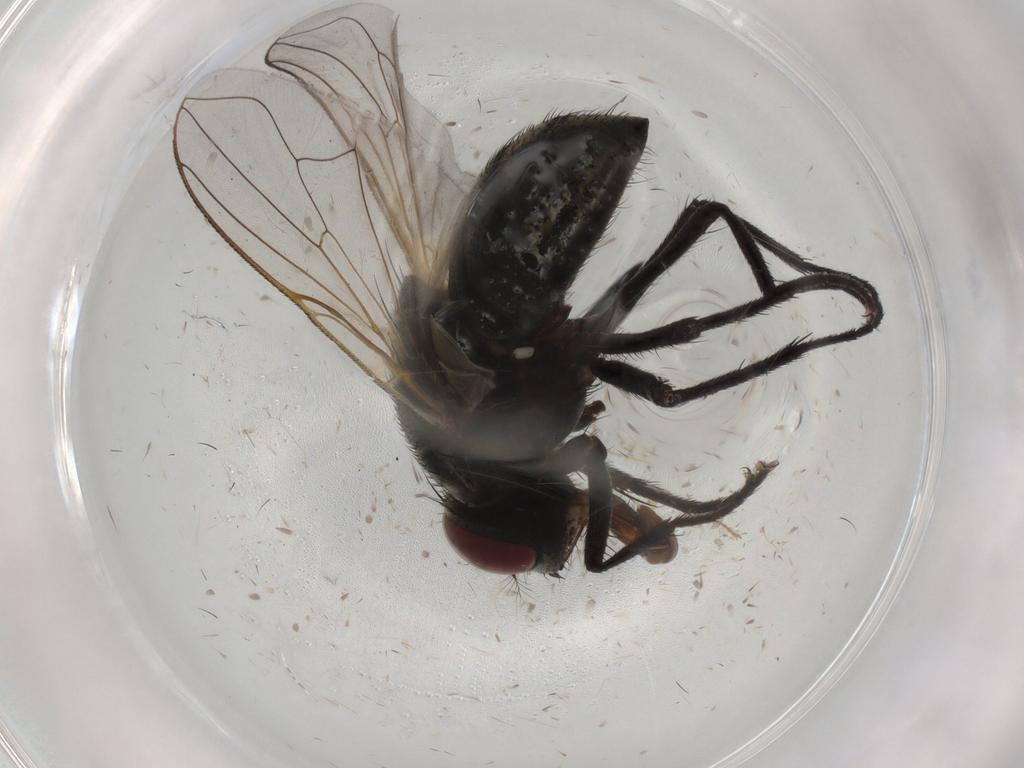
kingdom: Animalia
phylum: Arthropoda
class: Insecta
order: Diptera
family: Muscidae
